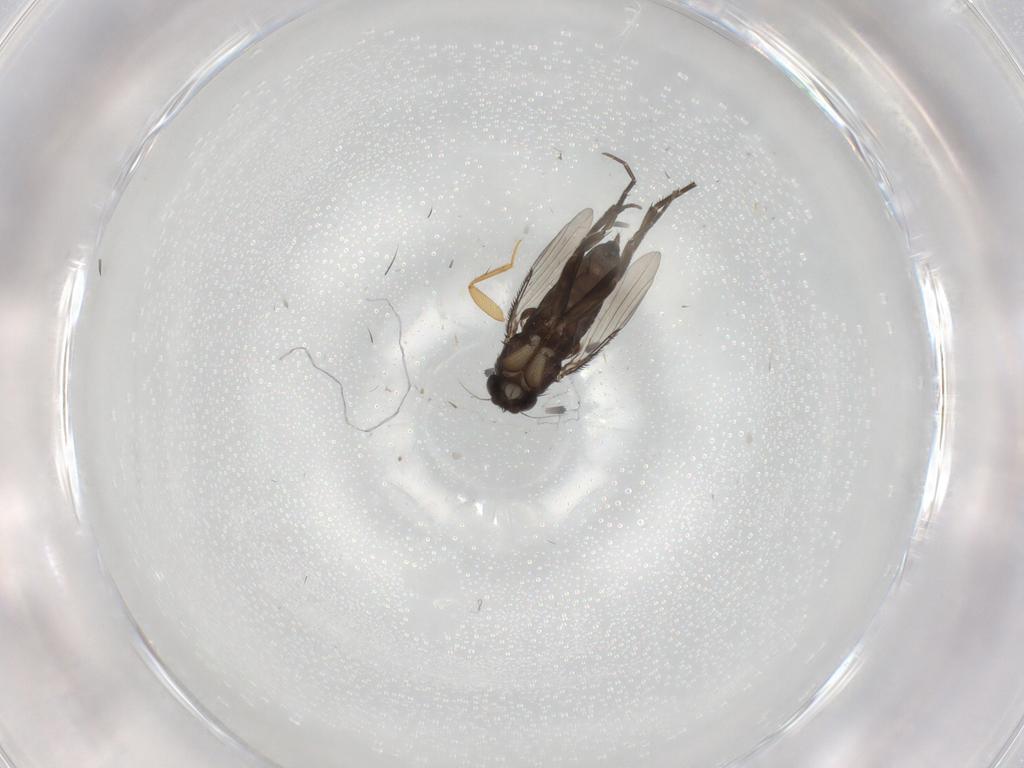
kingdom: Animalia
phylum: Arthropoda
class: Insecta
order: Diptera
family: Phoridae
